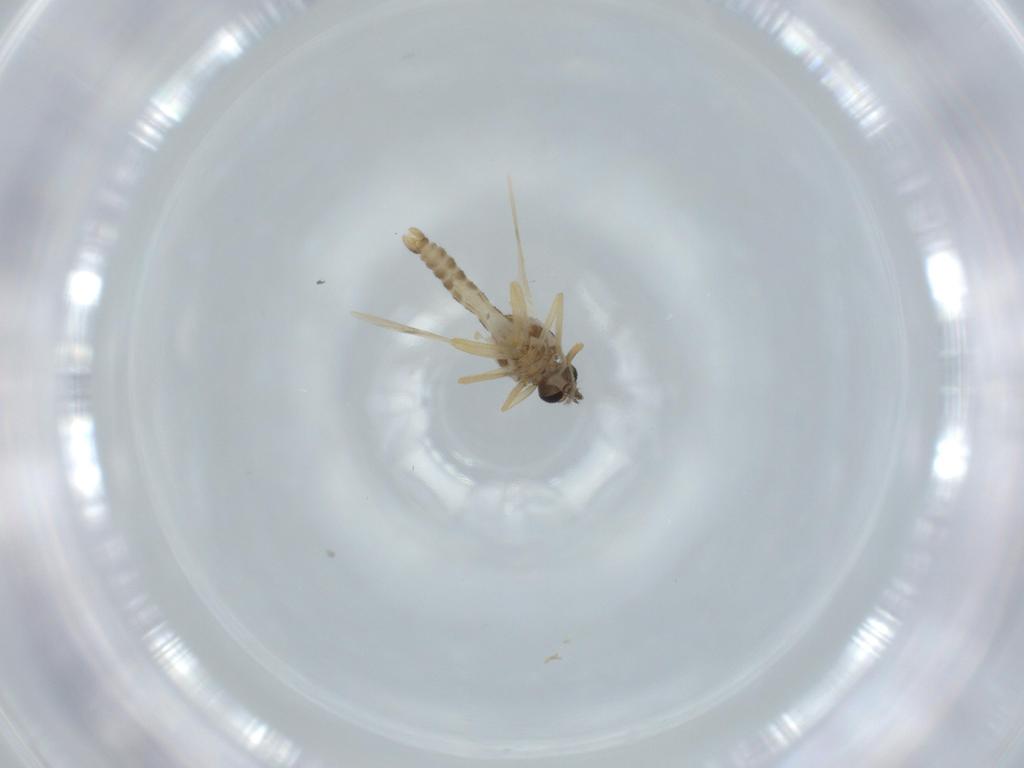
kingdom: Animalia
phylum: Arthropoda
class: Insecta
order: Diptera
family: Ceratopogonidae
